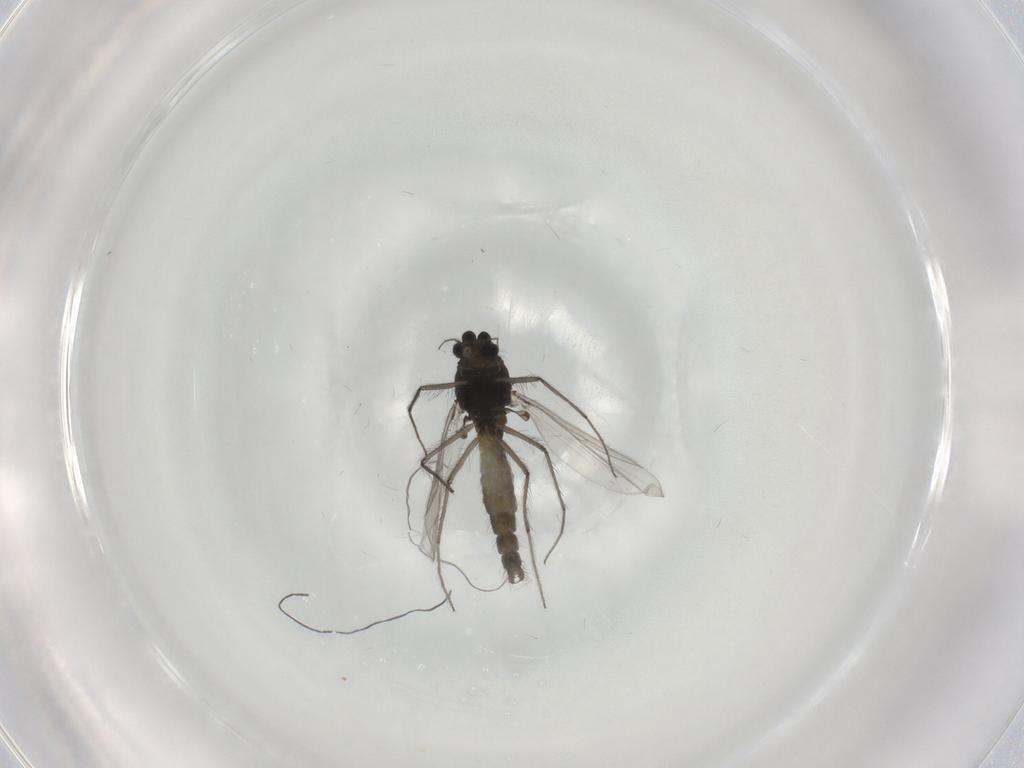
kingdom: Animalia
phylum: Arthropoda
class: Insecta
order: Diptera
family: Chironomidae
